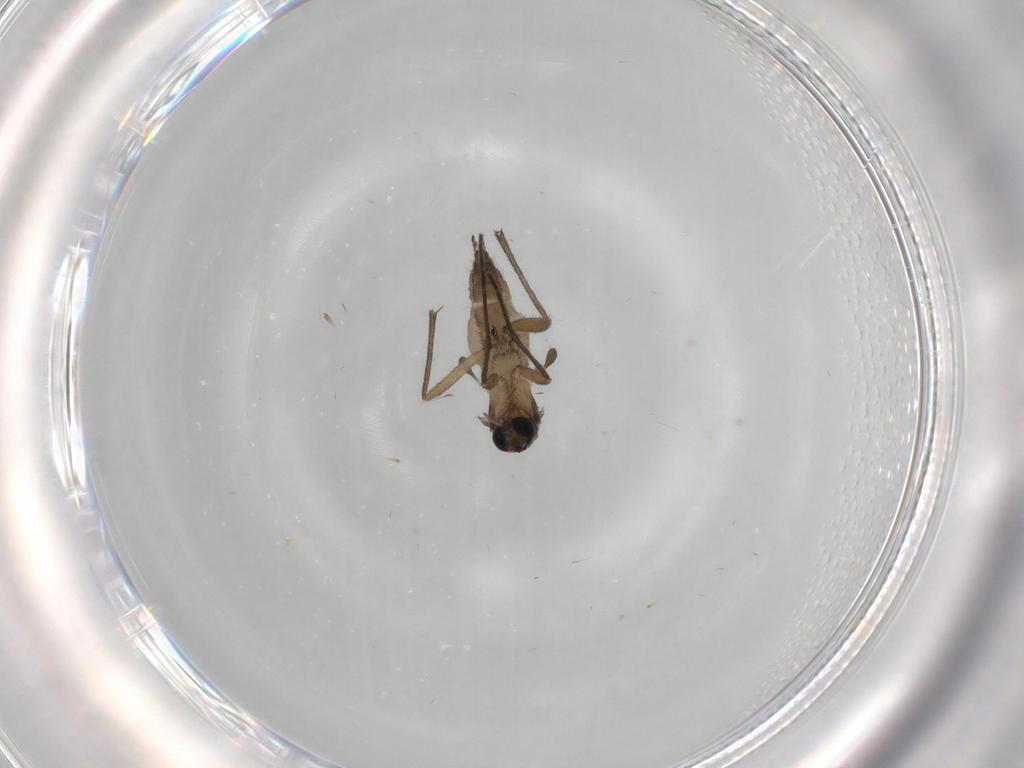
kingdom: Animalia
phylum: Arthropoda
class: Insecta
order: Diptera
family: Sciaridae
